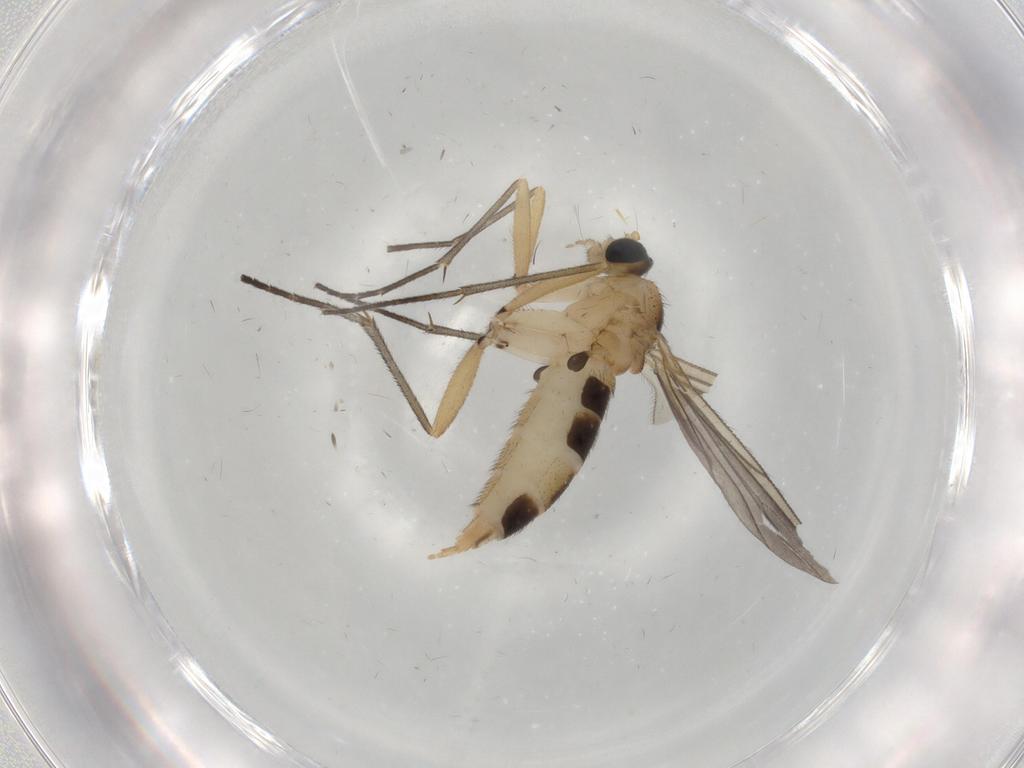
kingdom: Animalia
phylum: Arthropoda
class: Insecta
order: Diptera
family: Sciaridae
